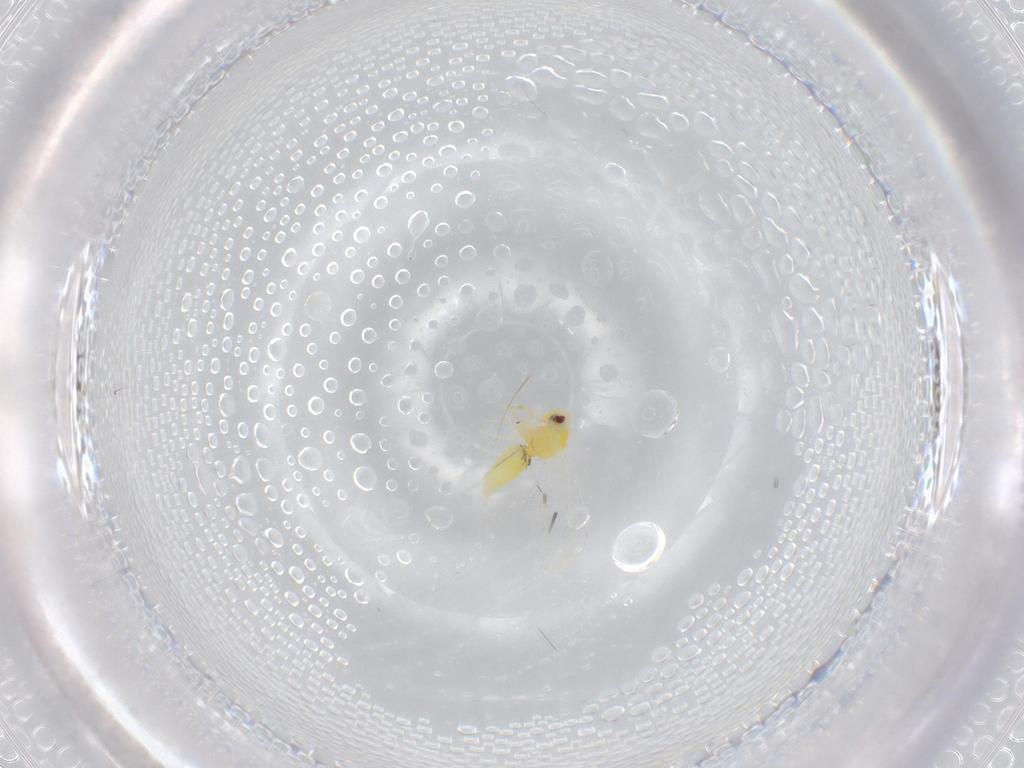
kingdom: Animalia
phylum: Arthropoda
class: Insecta
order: Hemiptera
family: Aleyrodidae
